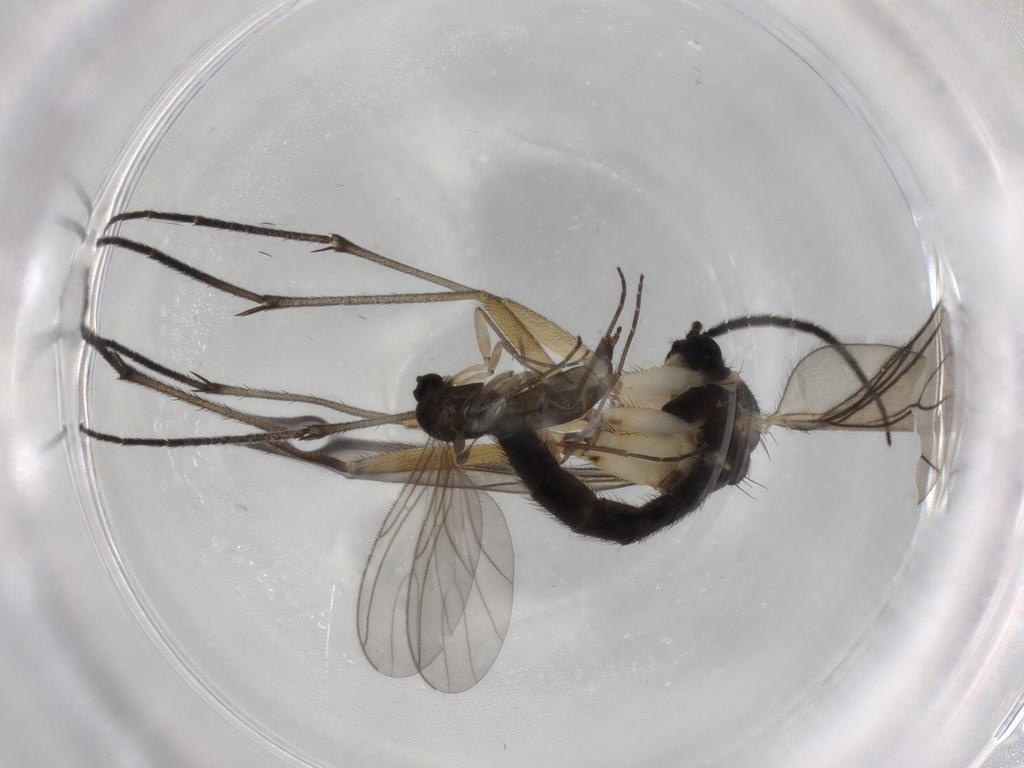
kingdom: Animalia
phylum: Arthropoda
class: Insecta
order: Diptera
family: Sciaridae
